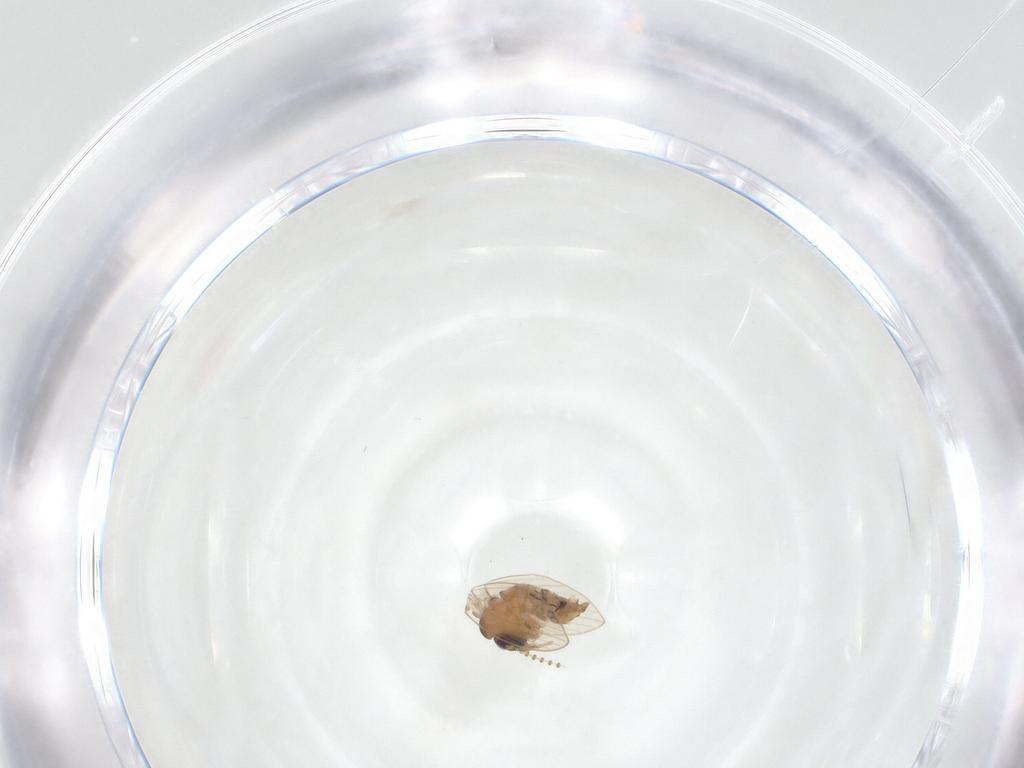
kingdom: Animalia
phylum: Arthropoda
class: Insecta
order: Diptera
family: Psychodidae
